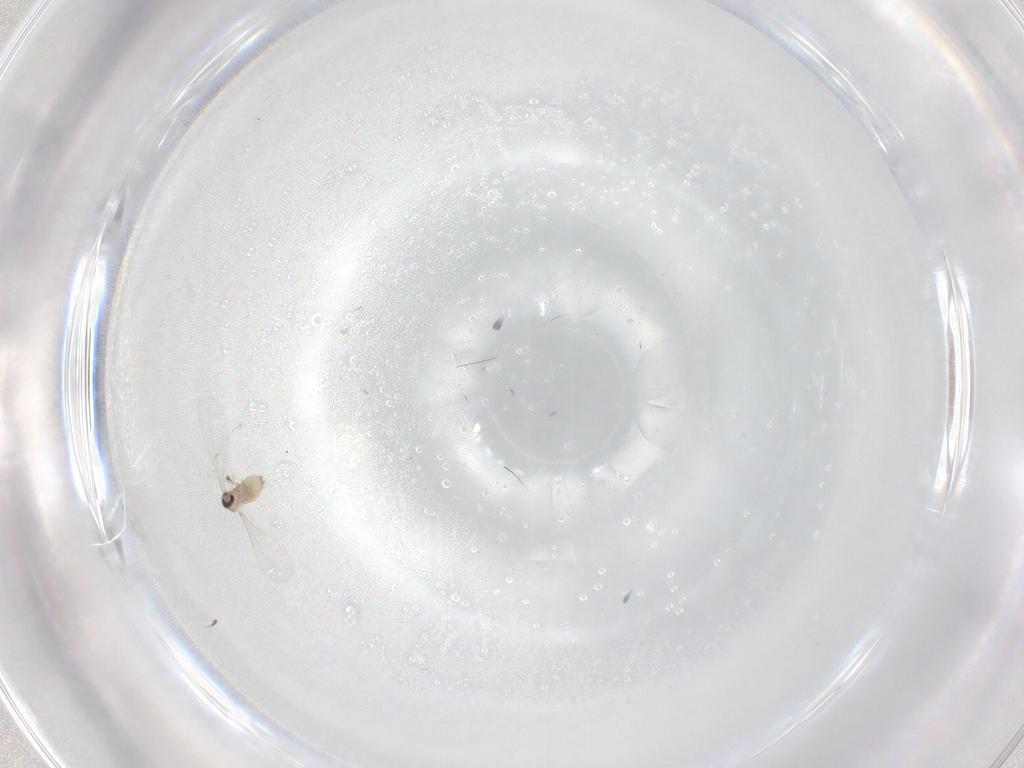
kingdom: Animalia
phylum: Arthropoda
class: Insecta
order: Diptera
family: Cecidomyiidae
